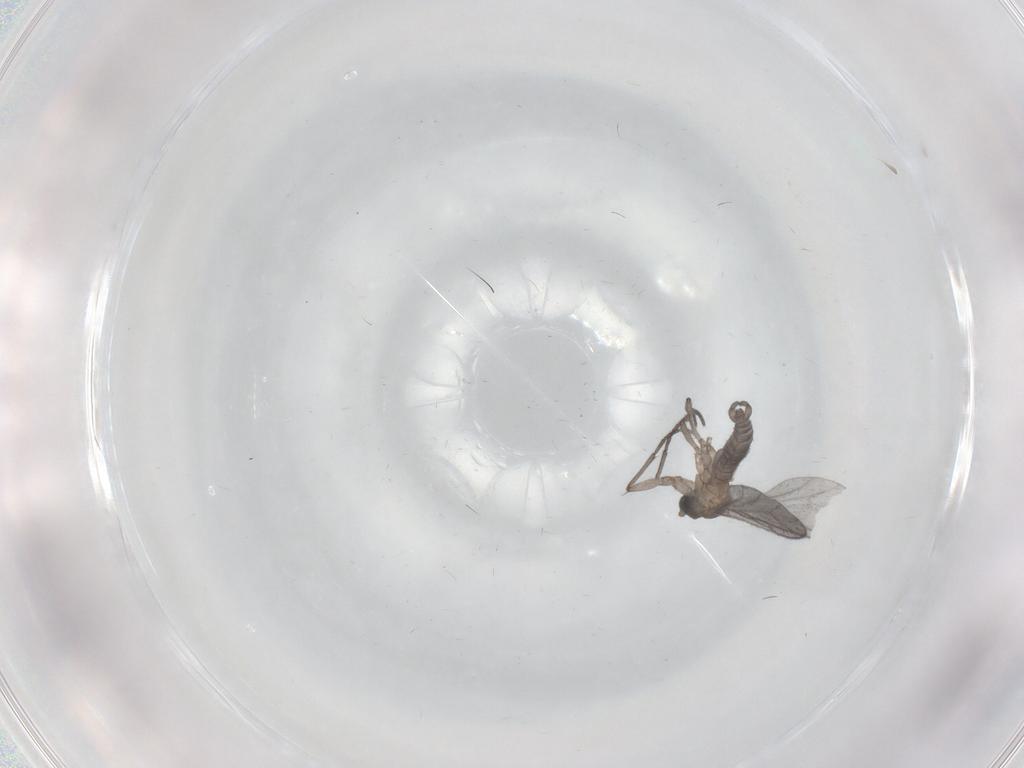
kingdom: Animalia
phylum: Arthropoda
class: Insecta
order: Diptera
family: Sciaridae
